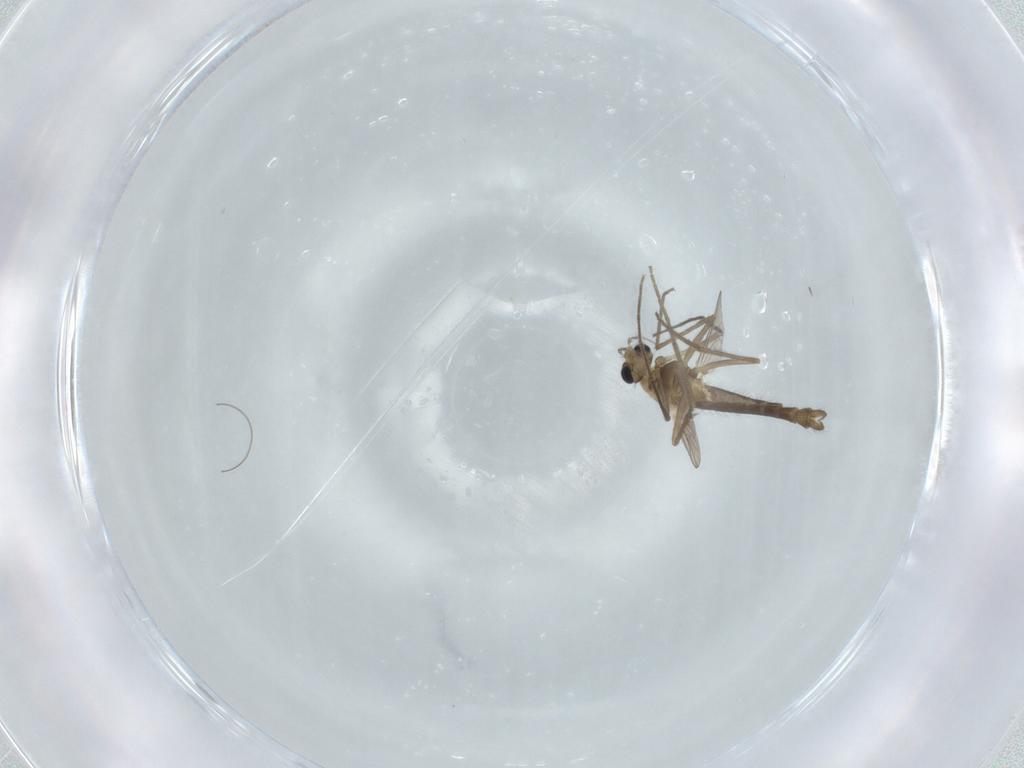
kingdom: Animalia
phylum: Arthropoda
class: Insecta
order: Diptera
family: Chironomidae
